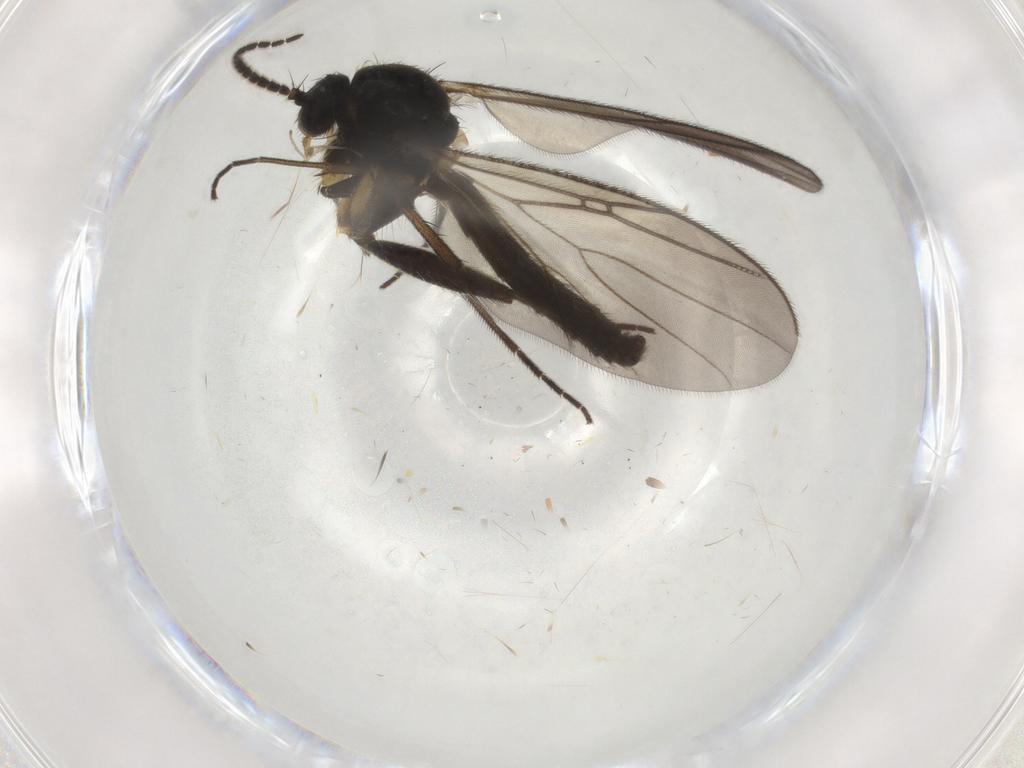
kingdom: Animalia
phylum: Arthropoda
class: Insecta
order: Diptera
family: Mycetophilidae
